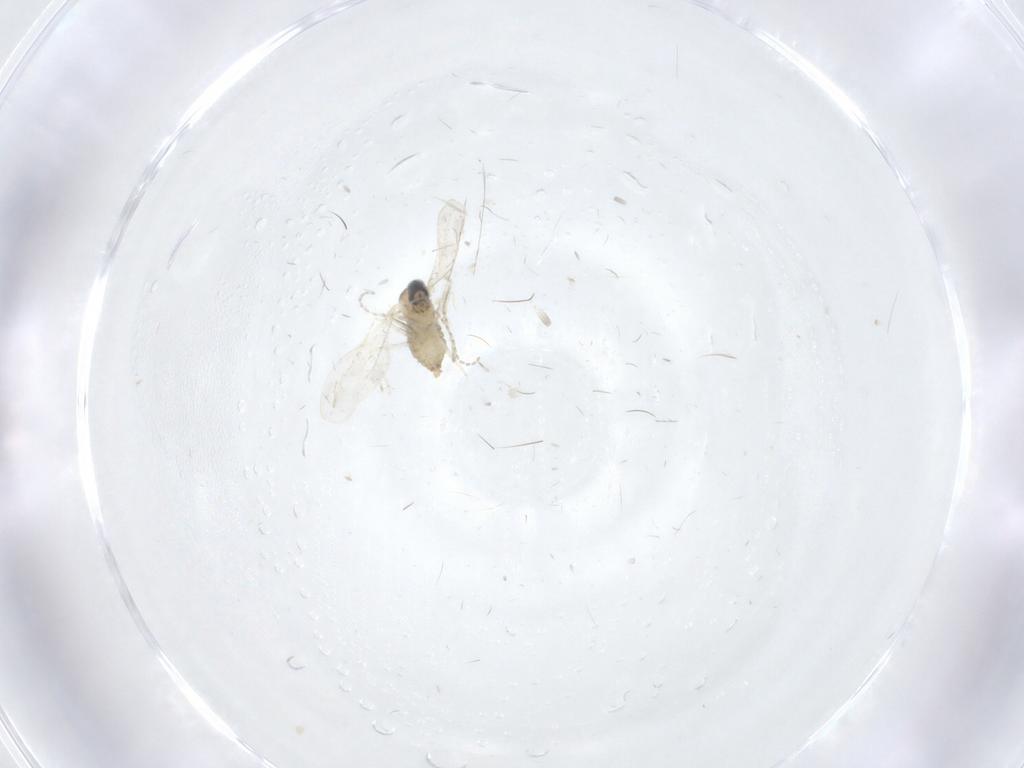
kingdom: Animalia
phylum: Arthropoda
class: Insecta
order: Diptera
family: Cecidomyiidae
